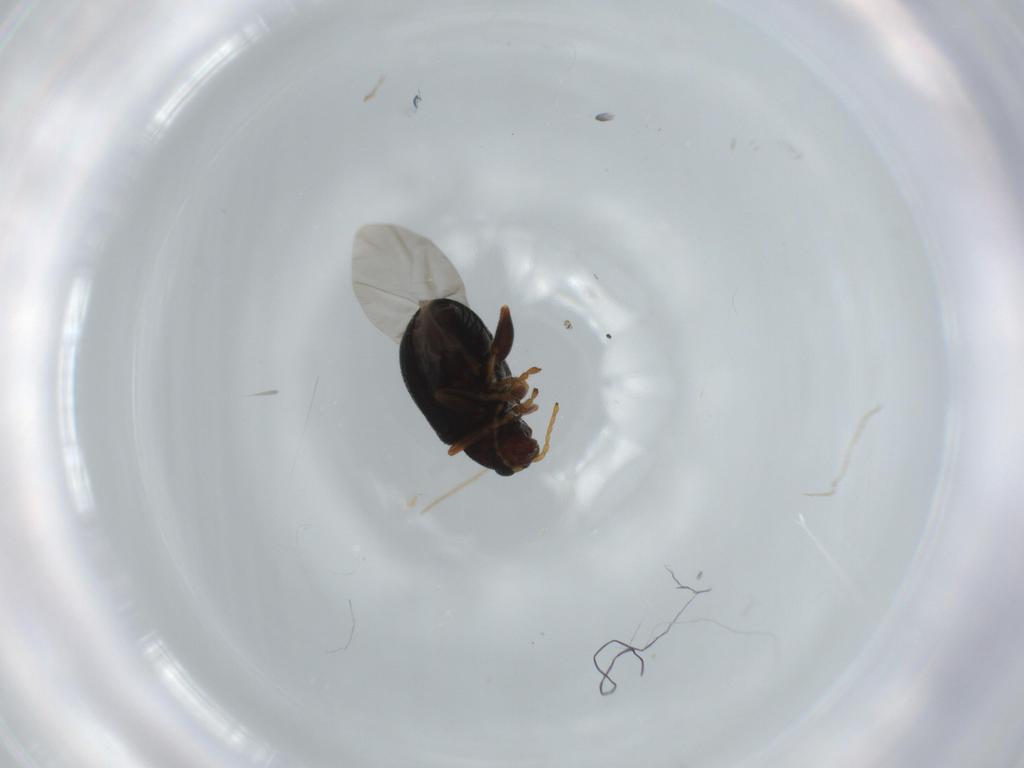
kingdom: Animalia
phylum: Arthropoda
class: Insecta
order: Coleoptera
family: Chrysomelidae
